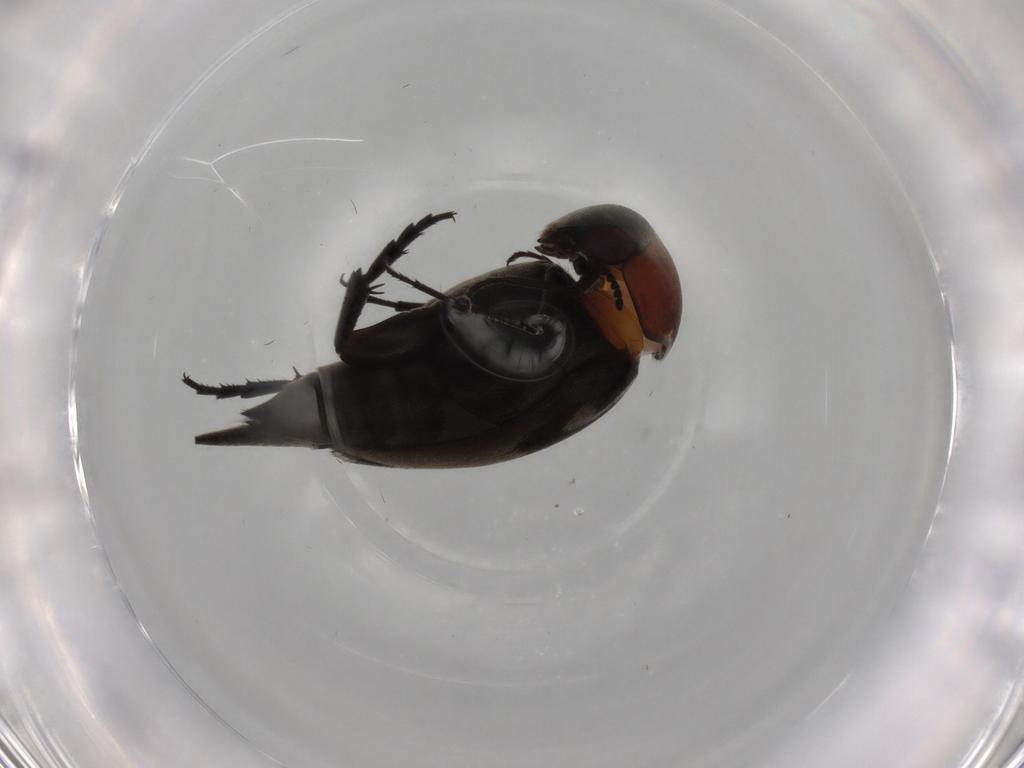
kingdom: Animalia
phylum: Arthropoda
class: Insecta
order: Coleoptera
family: Mordellidae
